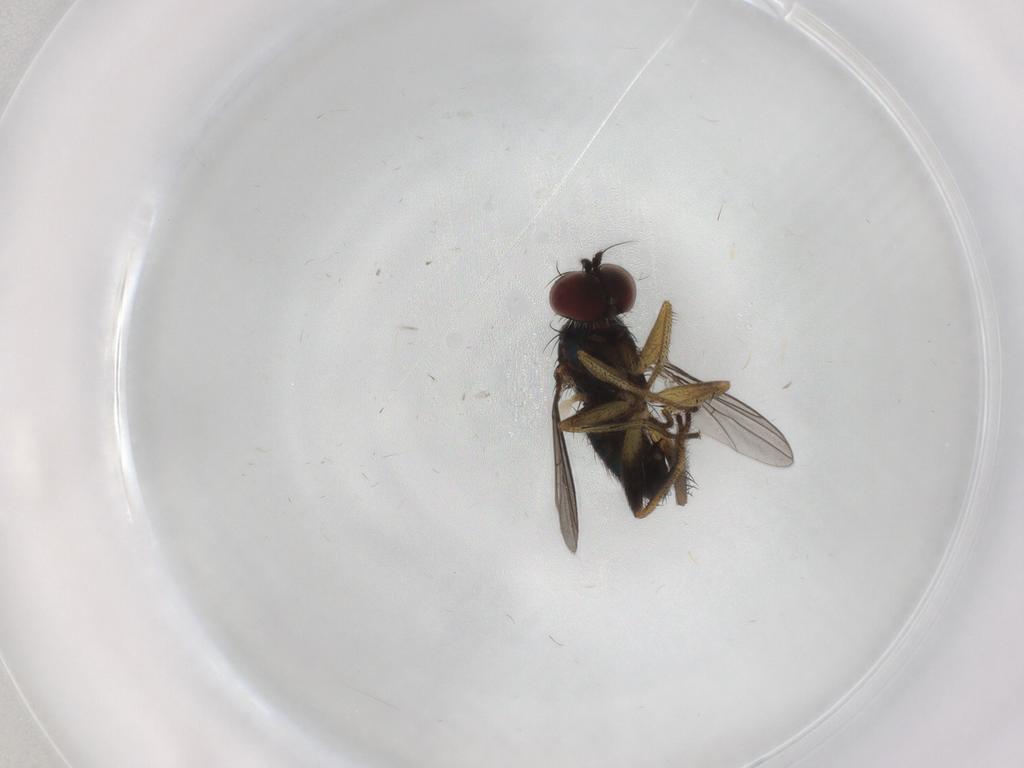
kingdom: Animalia
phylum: Arthropoda
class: Insecta
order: Diptera
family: Dolichopodidae
